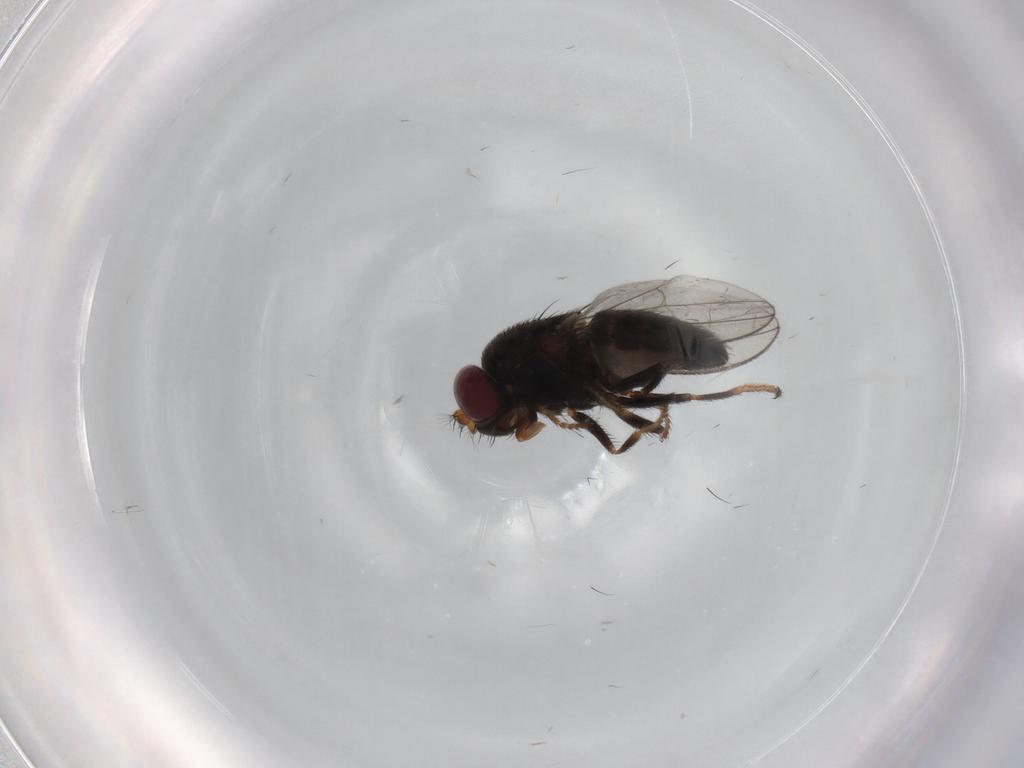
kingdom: Animalia
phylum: Arthropoda
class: Insecta
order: Diptera
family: Ephydridae
